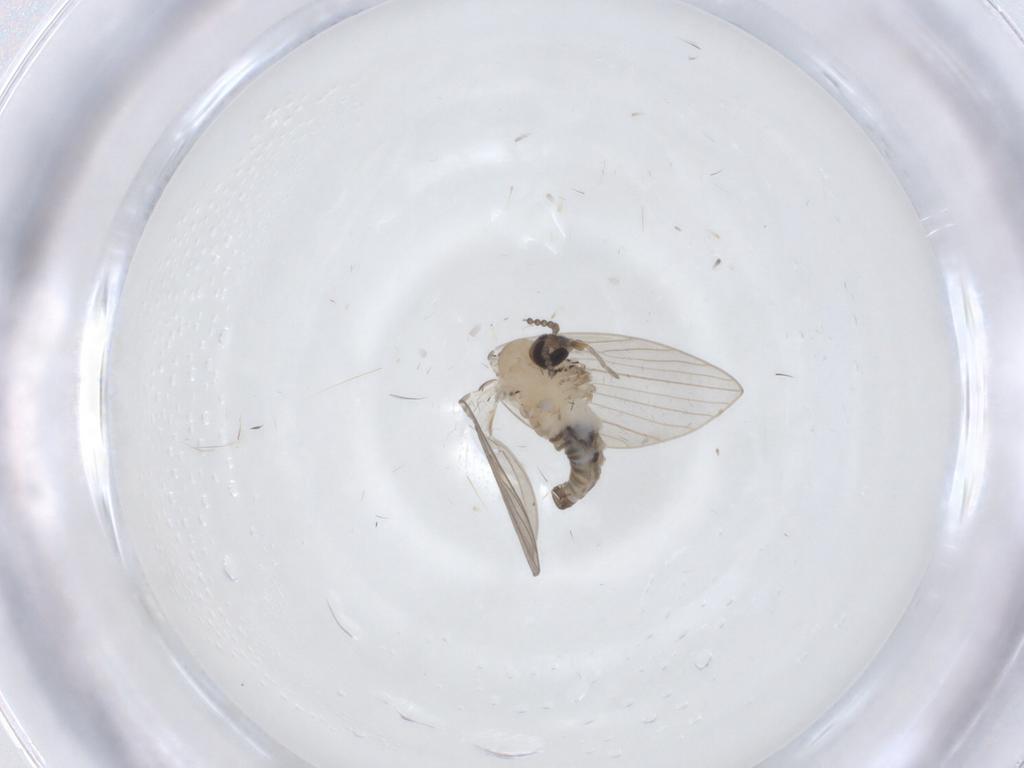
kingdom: Animalia
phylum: Arthropoda
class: Insecta
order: Diptera
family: Psychodidae
